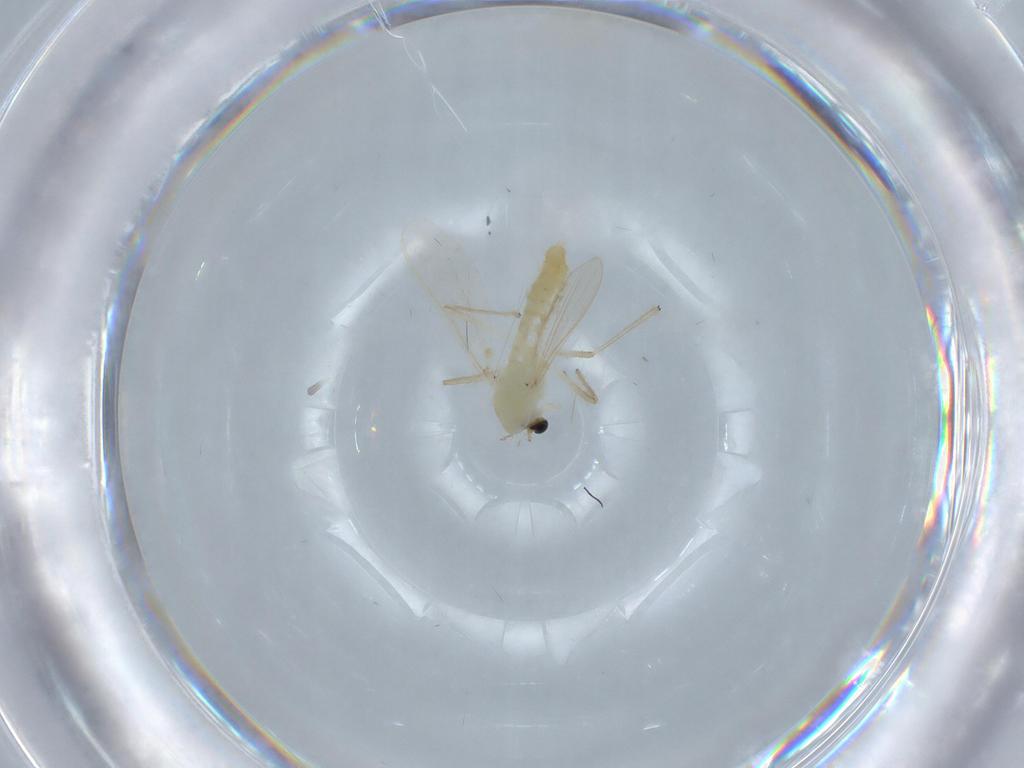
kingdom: Animalia
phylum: Arthropoda
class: Insecta
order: Diptera
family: Chironomidae
